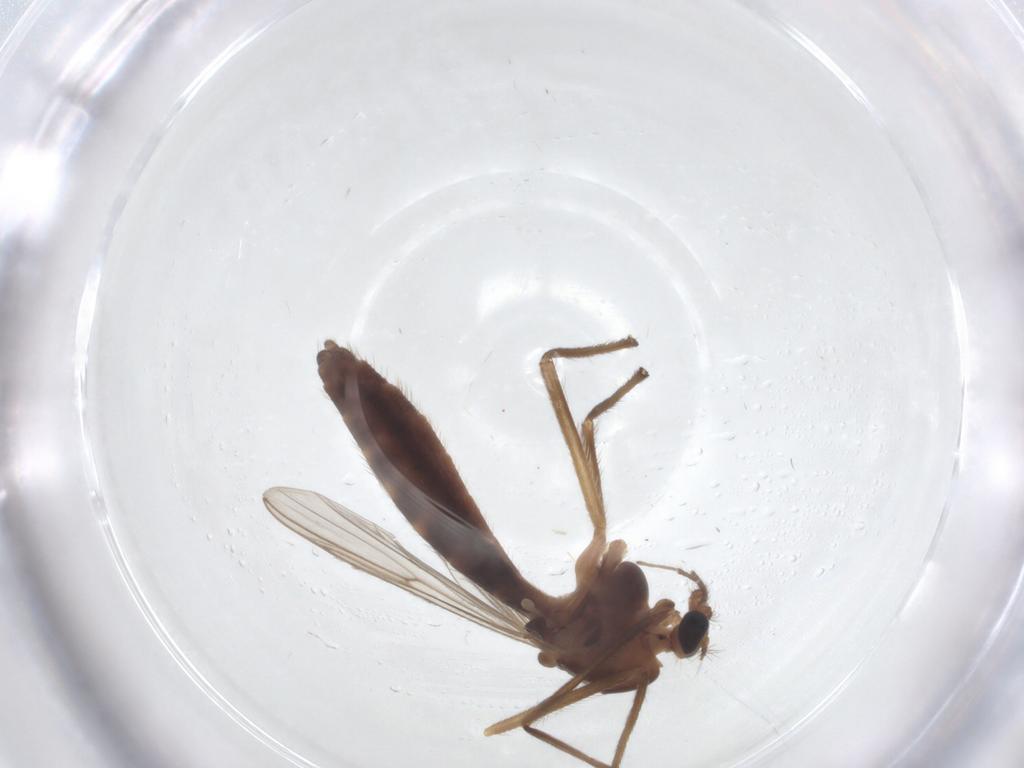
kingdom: Animalia
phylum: Arthropoda
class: Insecta
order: Diptera
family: Chironomidae
